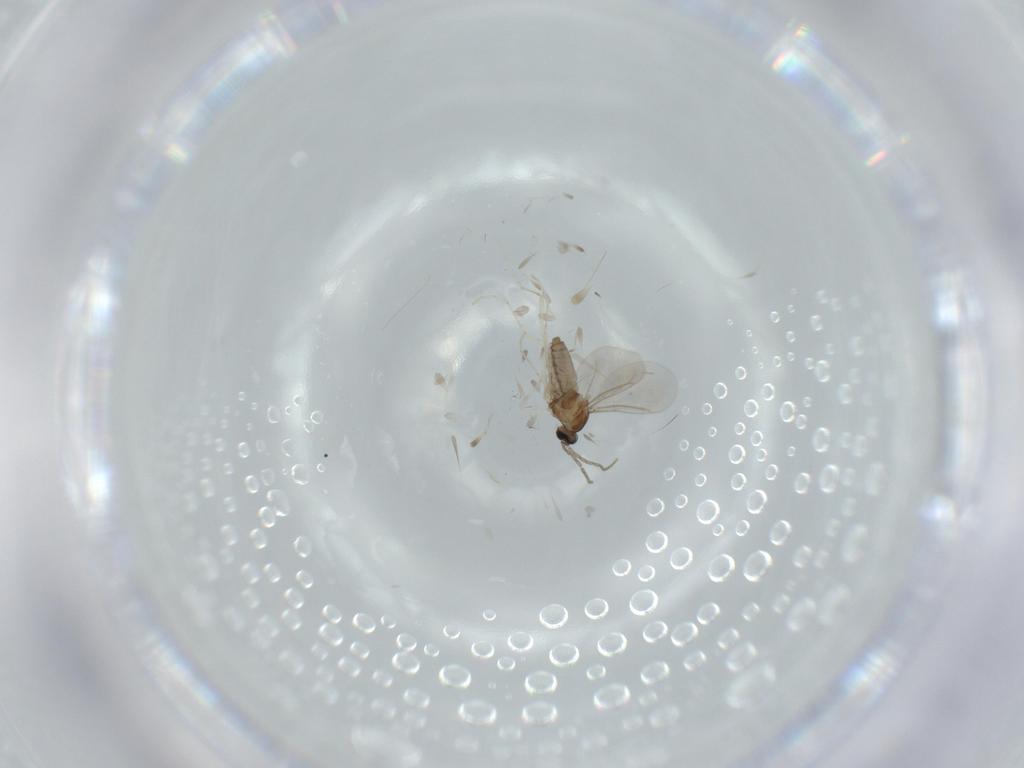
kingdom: Animalia
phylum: Arthropoda
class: Insecta
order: Diptera
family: Cecidomyiidae
